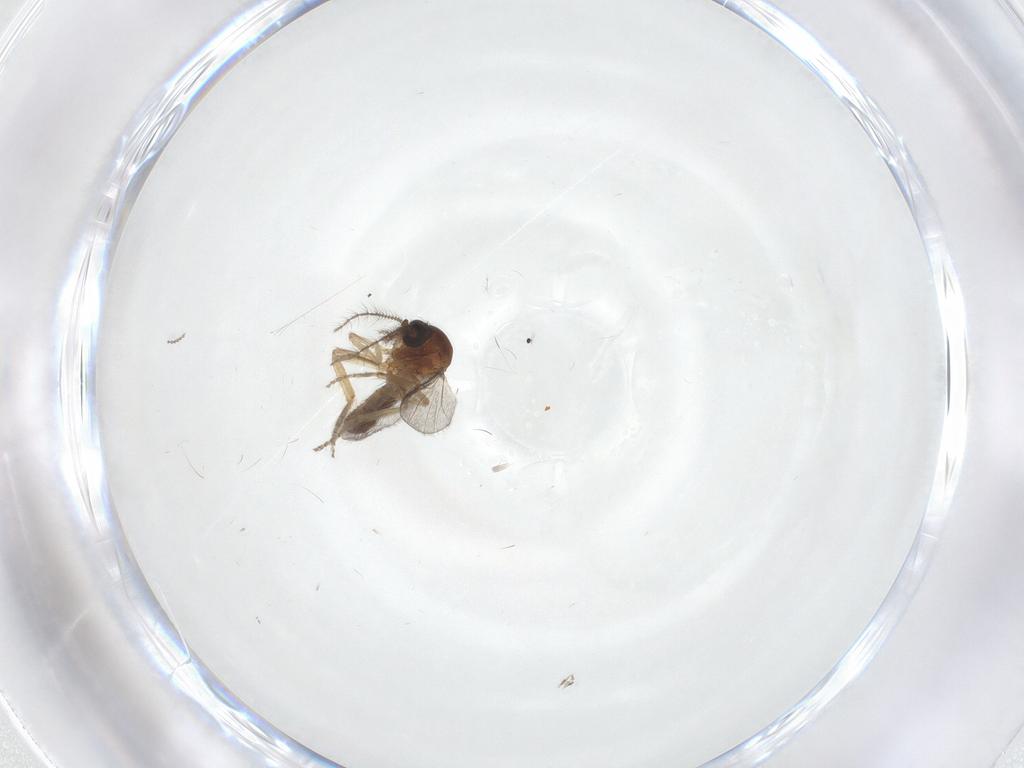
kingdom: Animalia
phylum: Arthropoda
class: Insecta
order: Diptera
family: Ceratopogonidae
